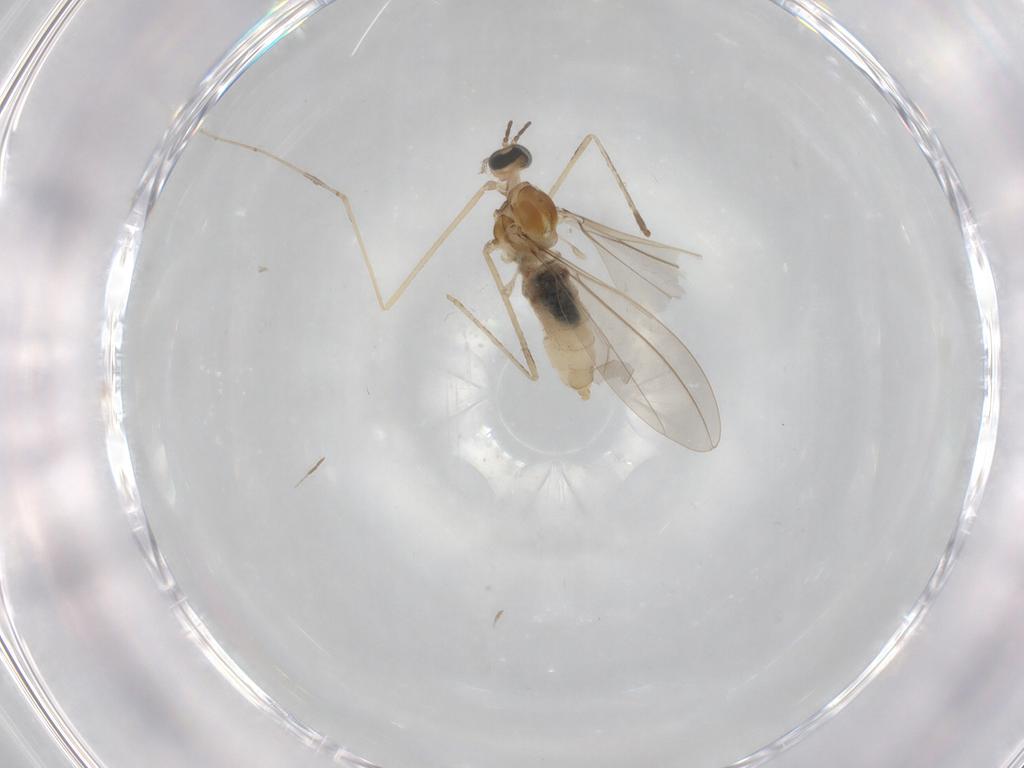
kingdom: Animalia
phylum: Arthropoda
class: Insecta
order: Diptera
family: Cecidomyiidae
